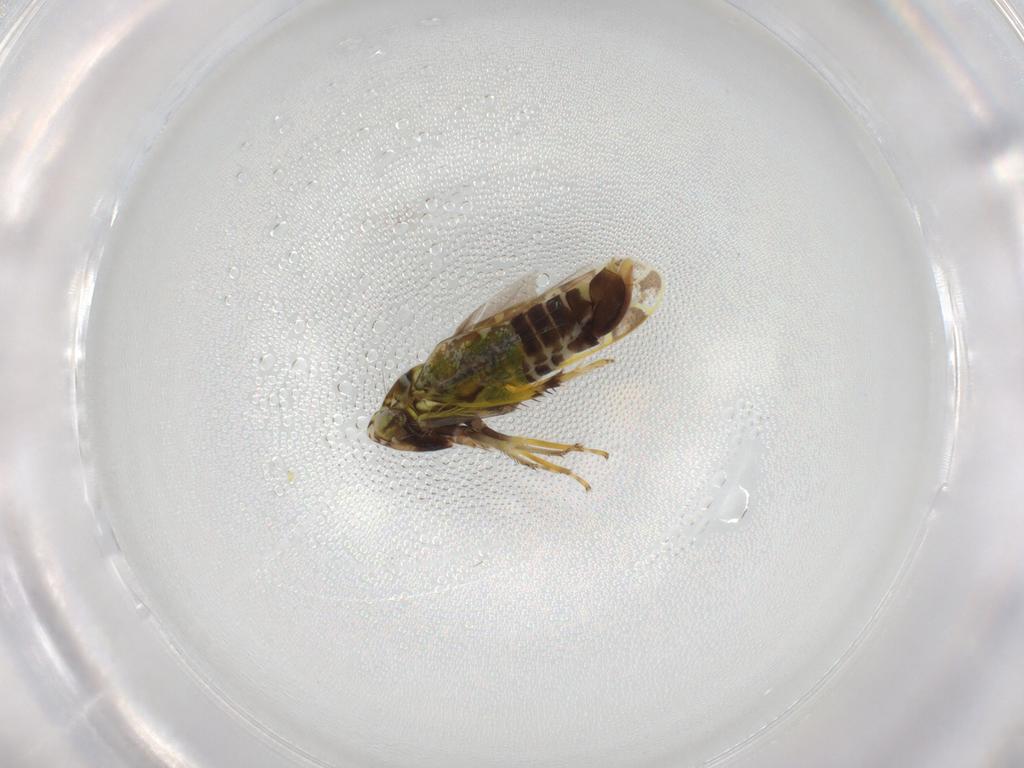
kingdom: Animalia
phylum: Arthropoda
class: Insecta
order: Hemiptera
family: Cicadellidae
